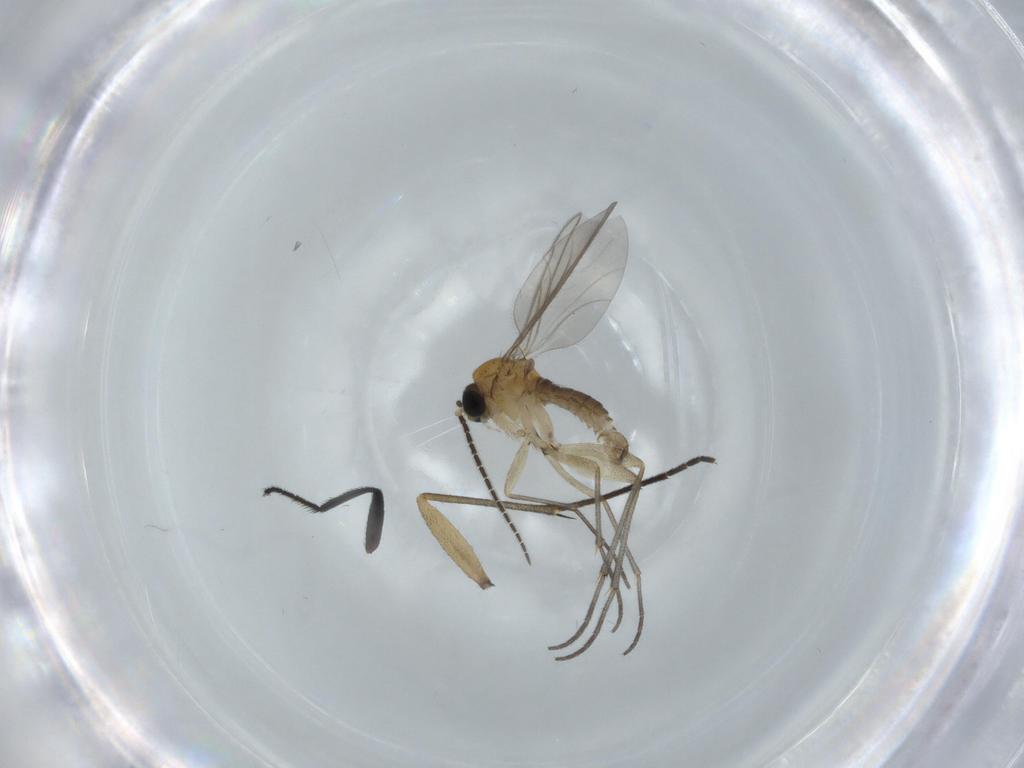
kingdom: Animalia
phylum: Arthropoda
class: Insecta
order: Diptera
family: Sciaridae
